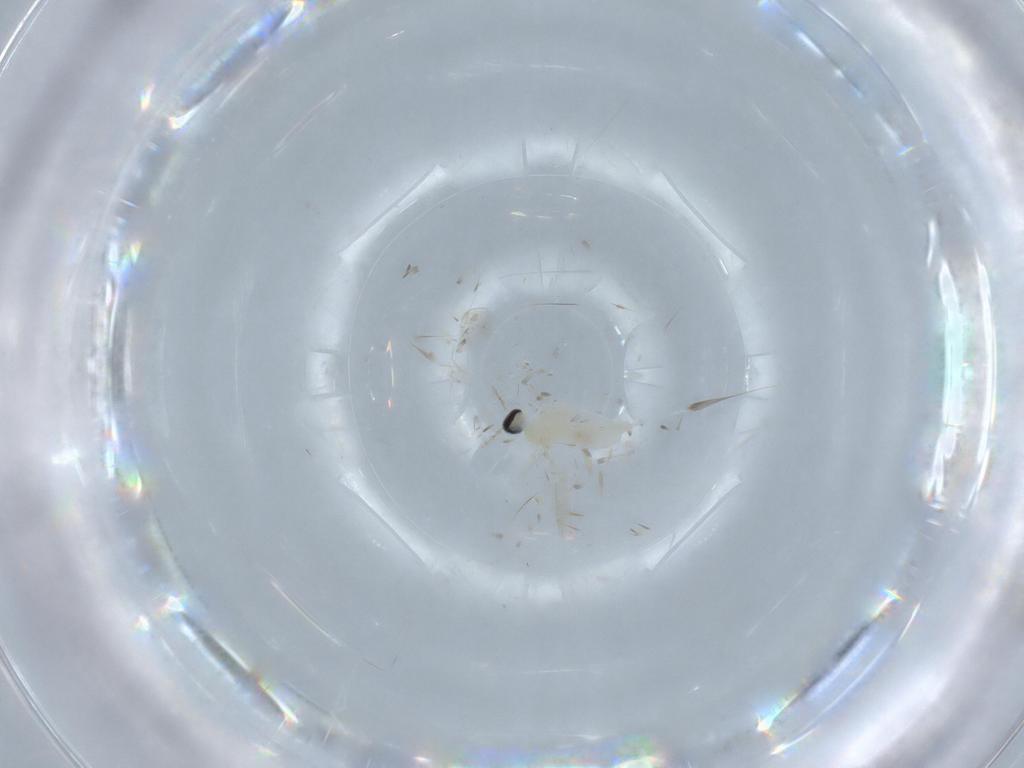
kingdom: Animalia
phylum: Arthropoda
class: Insecta
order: Diptera
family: Cecidomyiidae
